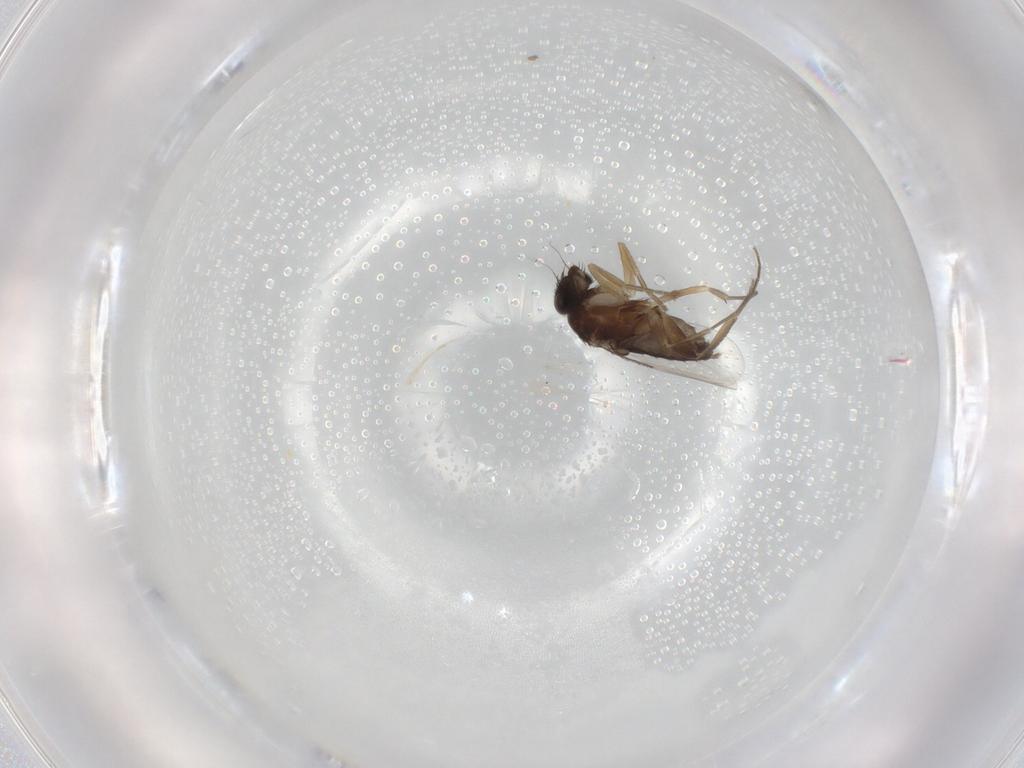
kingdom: Animalia
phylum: Arthropoda
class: Insecta
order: Diptera
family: Phoridae
